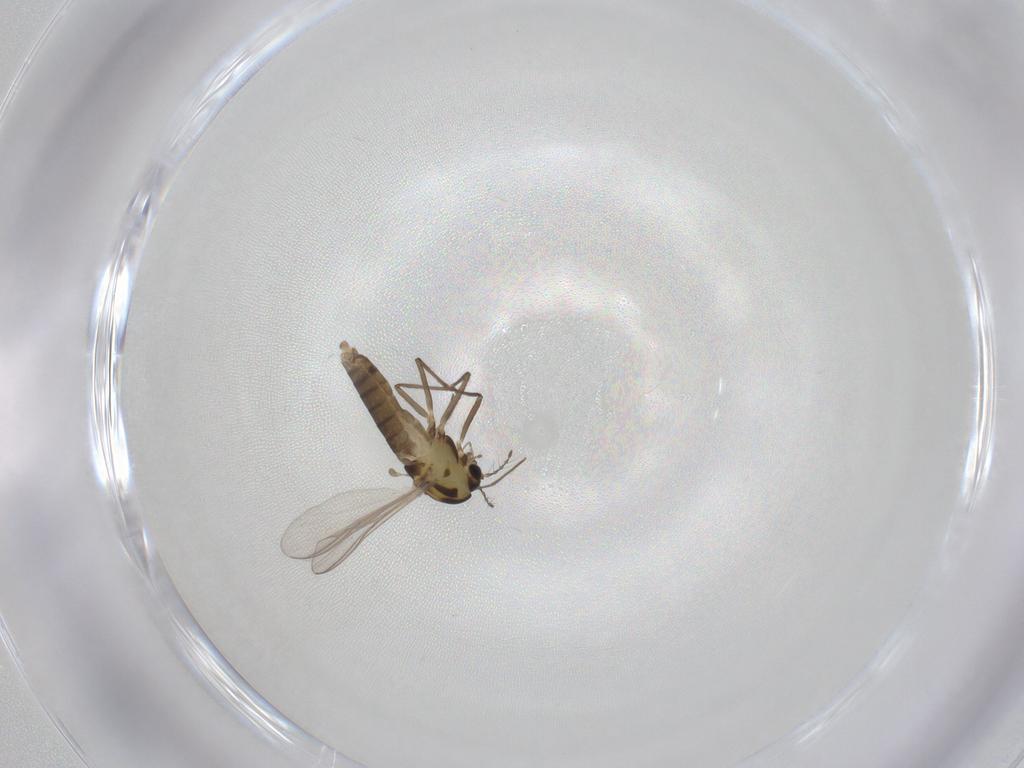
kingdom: Animalia
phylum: Arthropoda
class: Insecta
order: Diptera
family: Chironomidae
